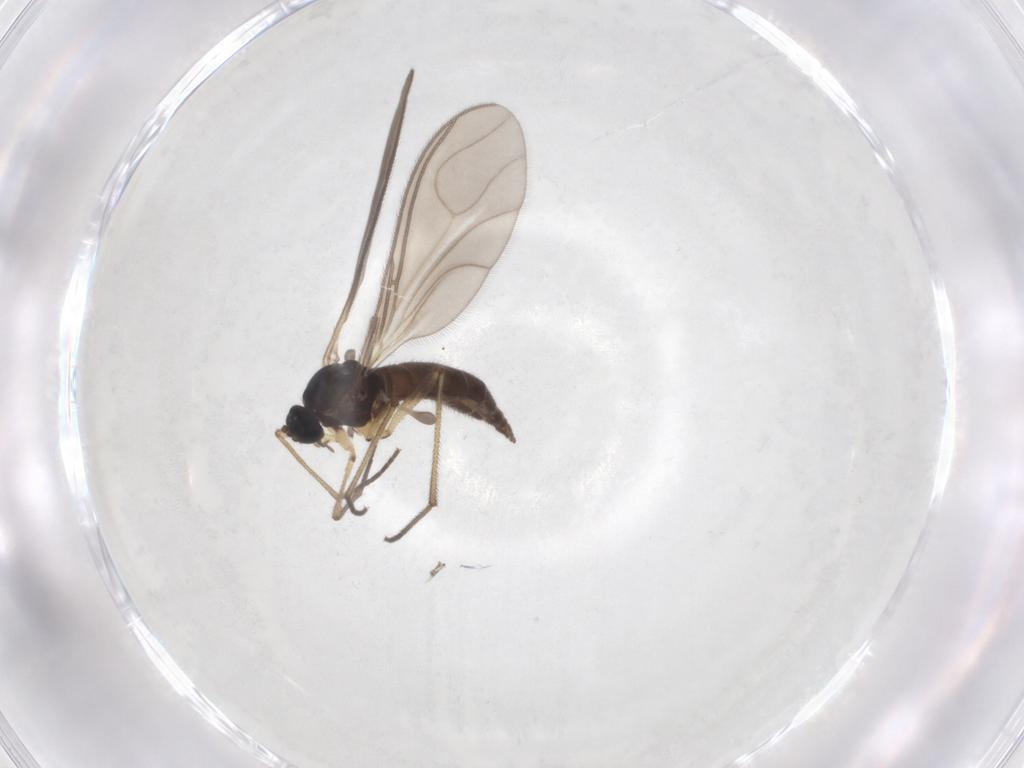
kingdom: Animalia
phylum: Arthropoda
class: Insecta
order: Diptera
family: Cecidomyiidae
